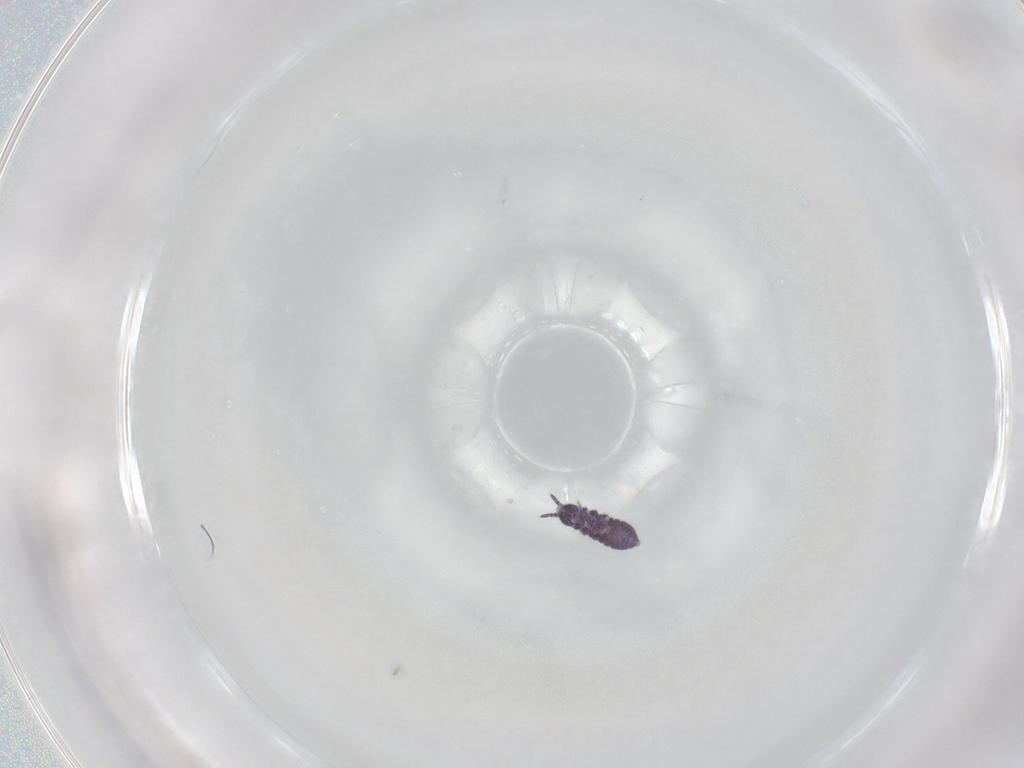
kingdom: Animalia
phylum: Arthropoda
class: Collembola
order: Poduromorpha
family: Brachystomellidae
